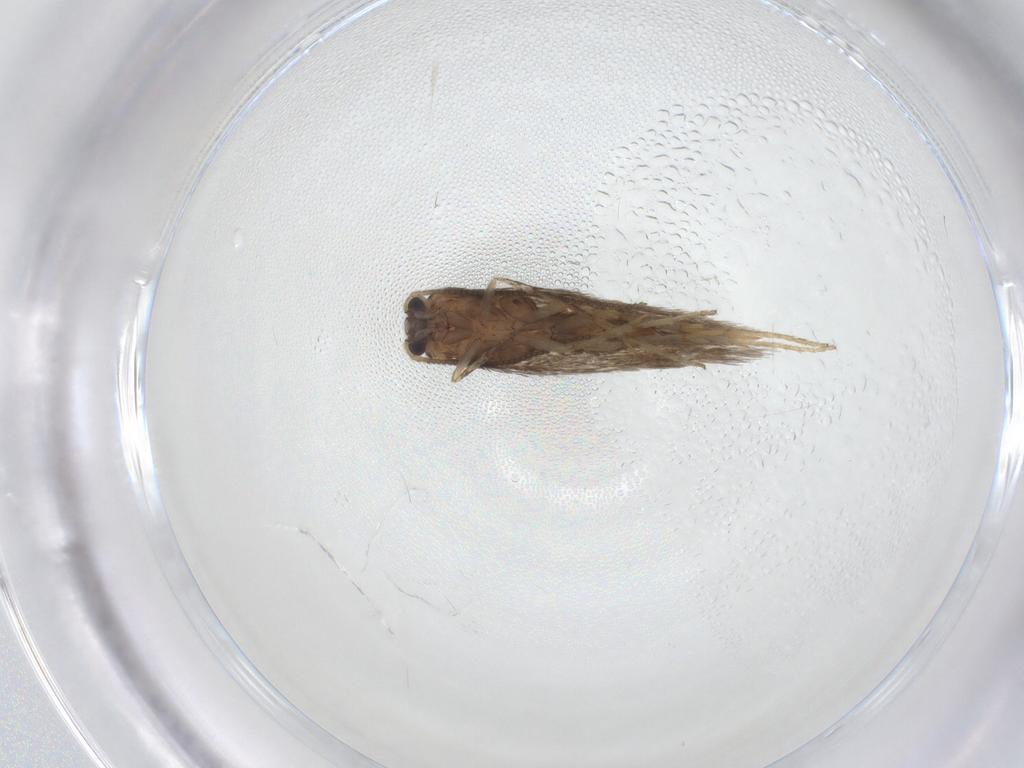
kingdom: Animalia
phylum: Arthropoda
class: Insecta
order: Lepidoptera
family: Nepticulidae
